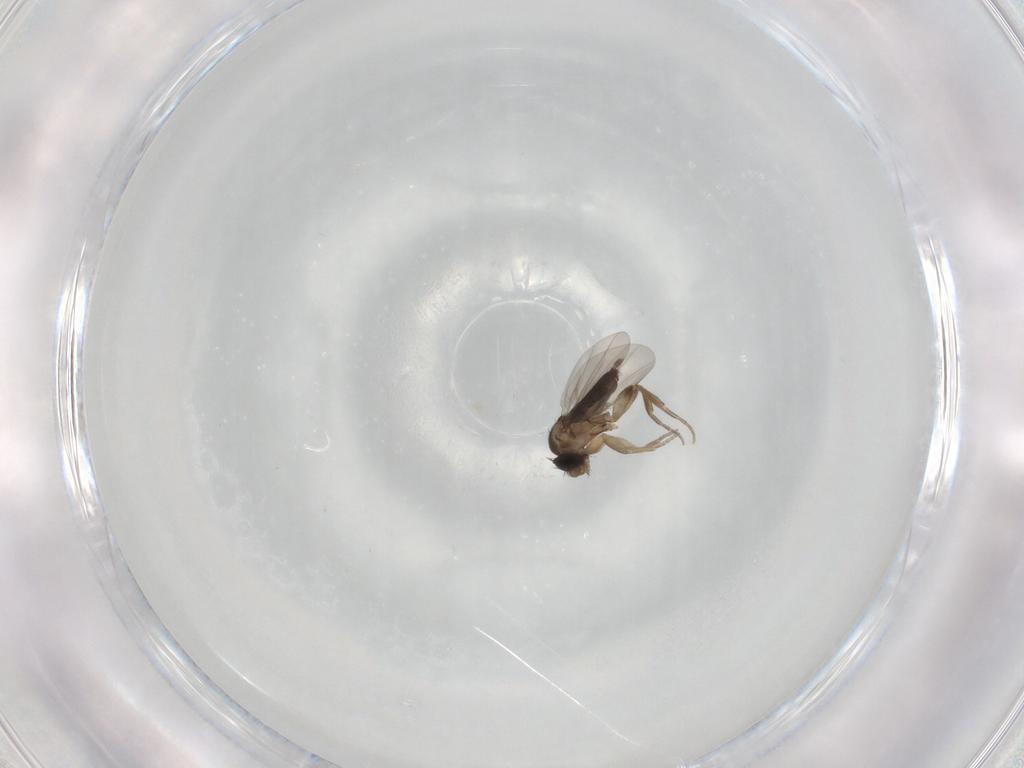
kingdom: Animalia
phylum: Arthropoda
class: Insecta
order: Diptera
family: Phoridae
